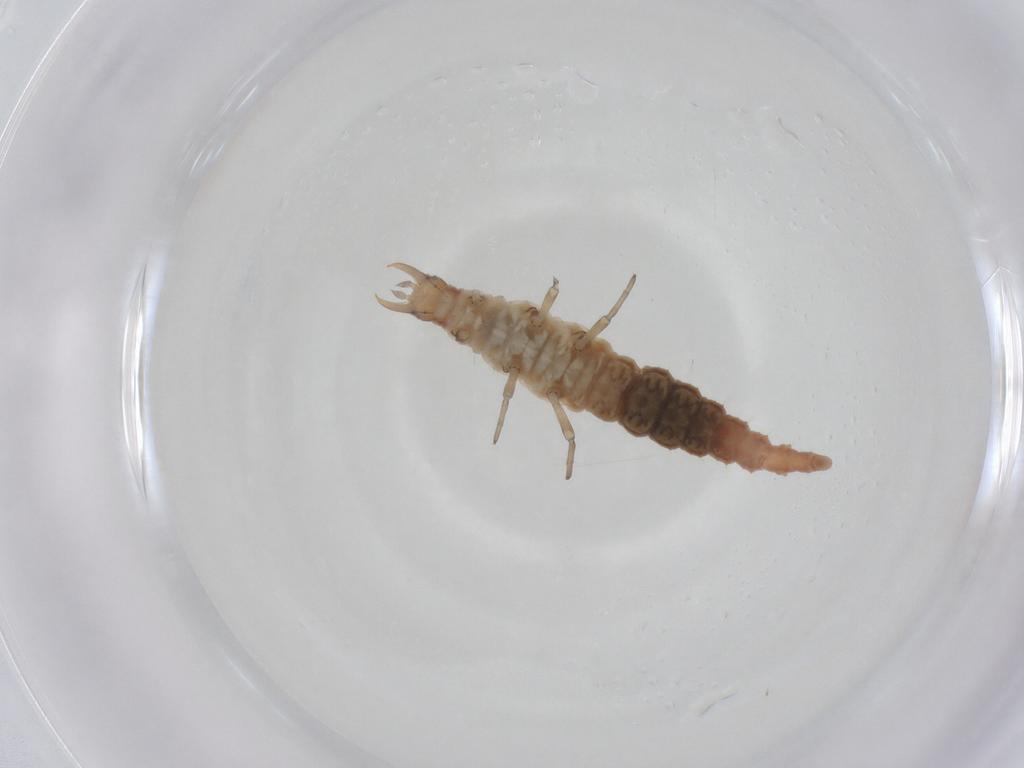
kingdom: Animalia
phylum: Arthropoda
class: Insecta
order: Neuroptera
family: Hemerobiidae
